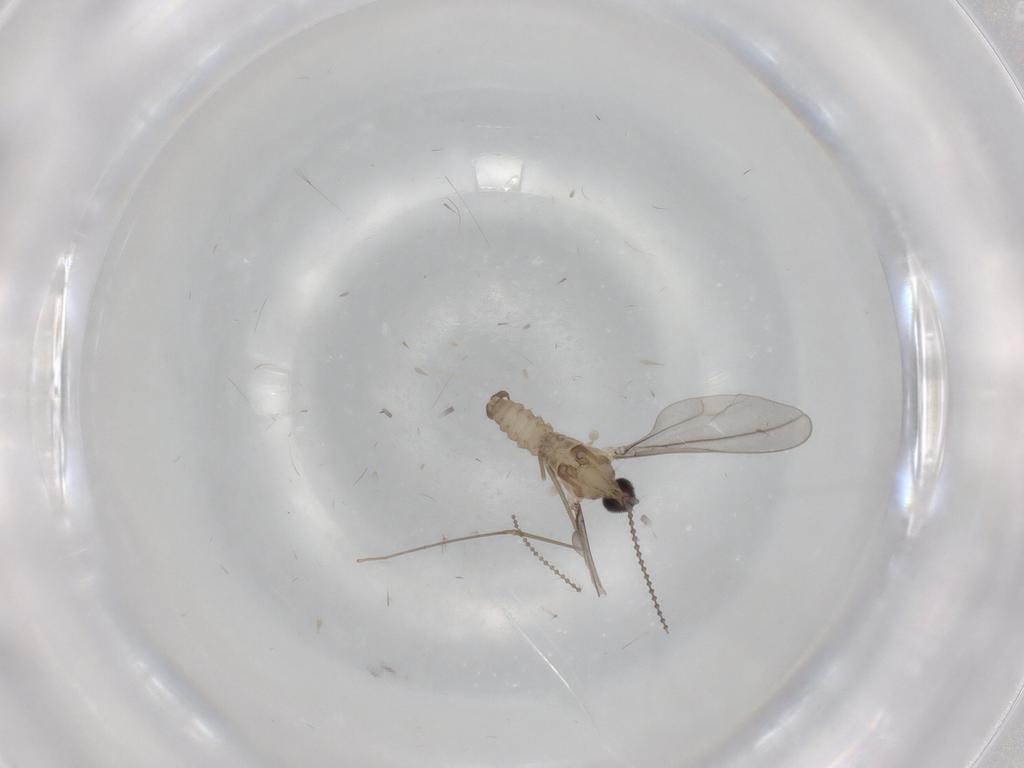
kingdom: Animalia
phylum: Arthropoda
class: Insecta
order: Diptera
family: Cecidomyiidae
